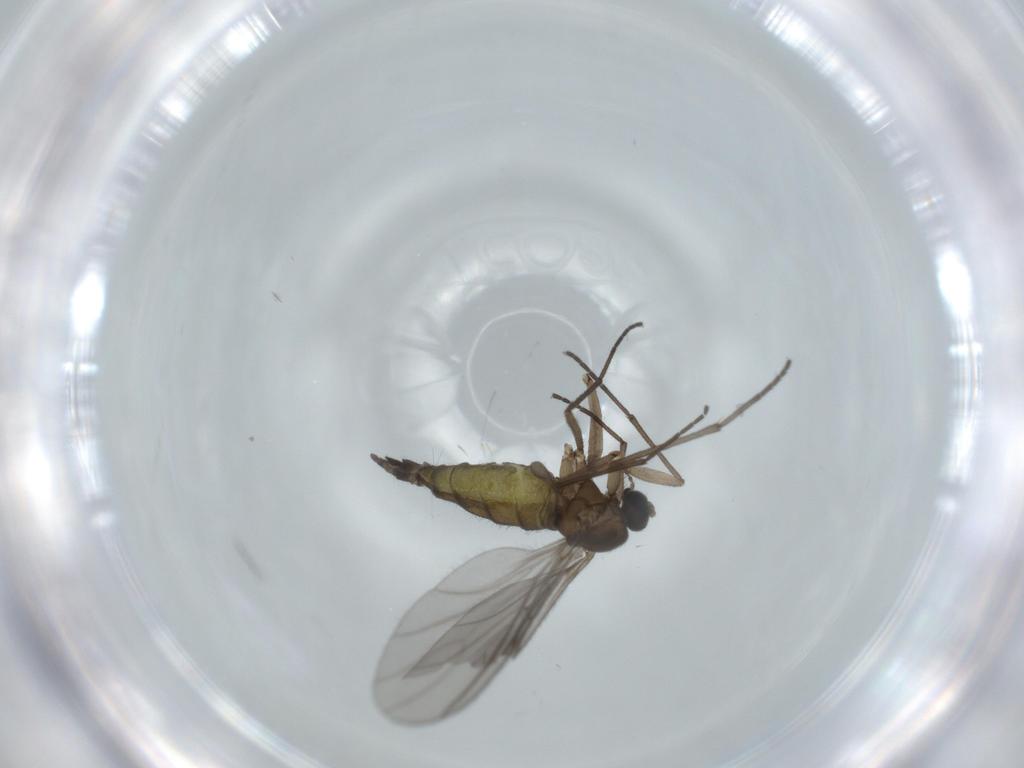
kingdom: Animalia
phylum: Arthropoda
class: Insecta
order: Diptera
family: Sciaridae
